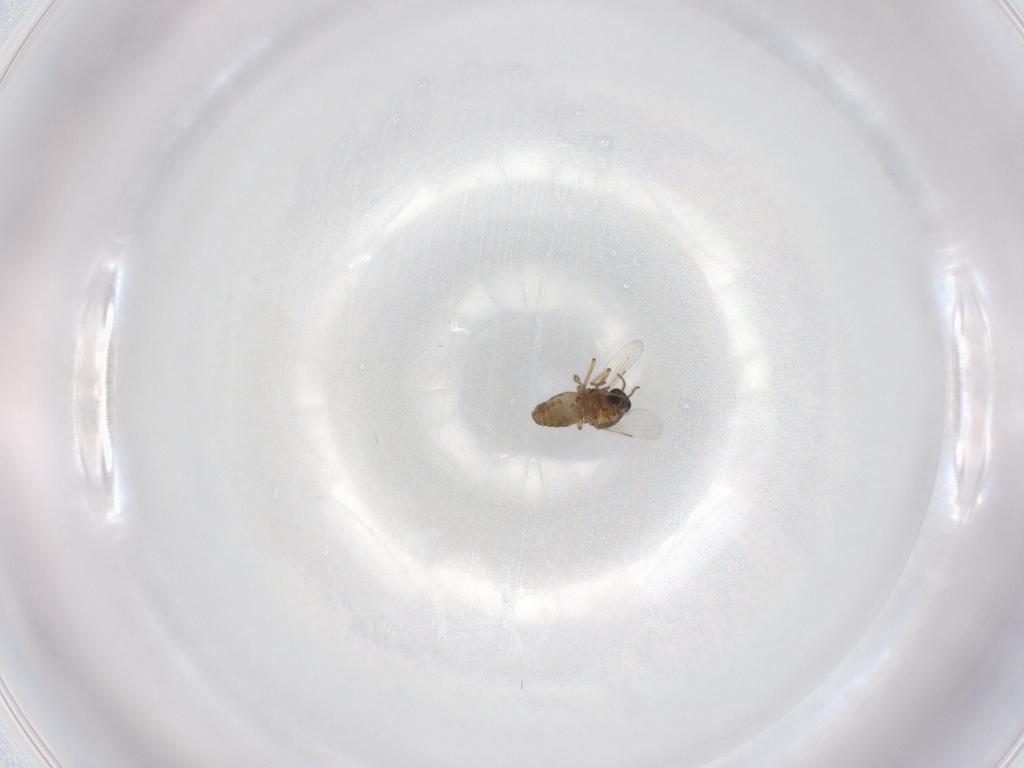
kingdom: Animalia
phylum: Arthropoda
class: Insecta
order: Diptera
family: Ceratopogonidae
